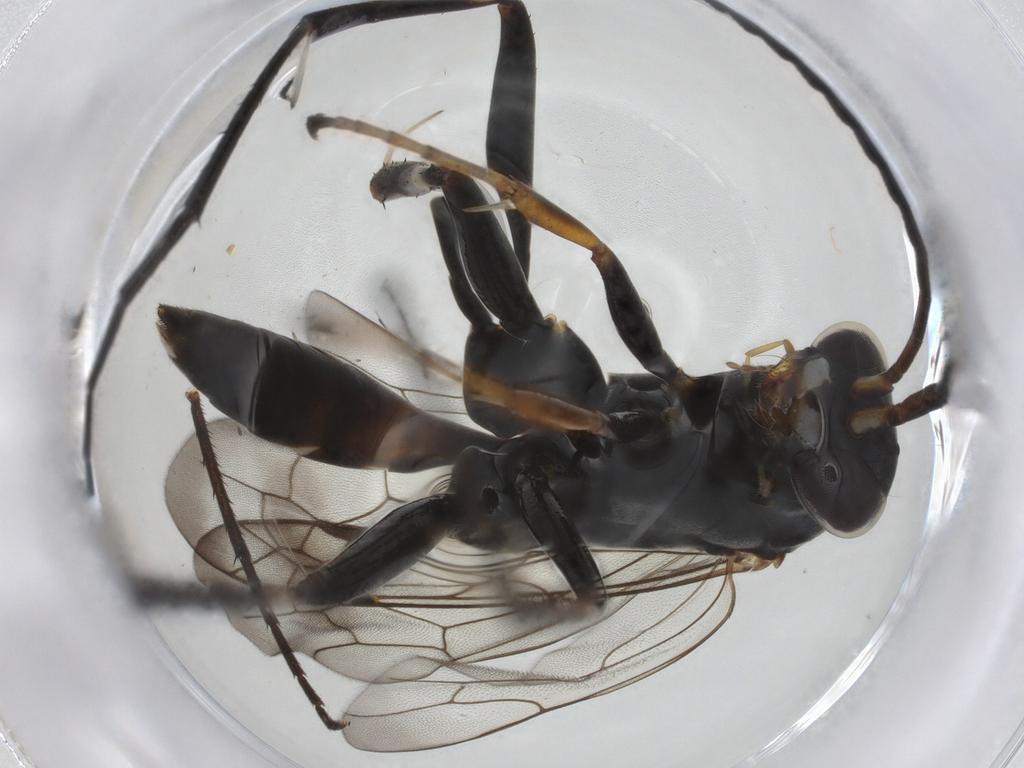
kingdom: Animalia
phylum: Arthropoda
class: Insecta
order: Hymenoptera
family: Pompilidae
